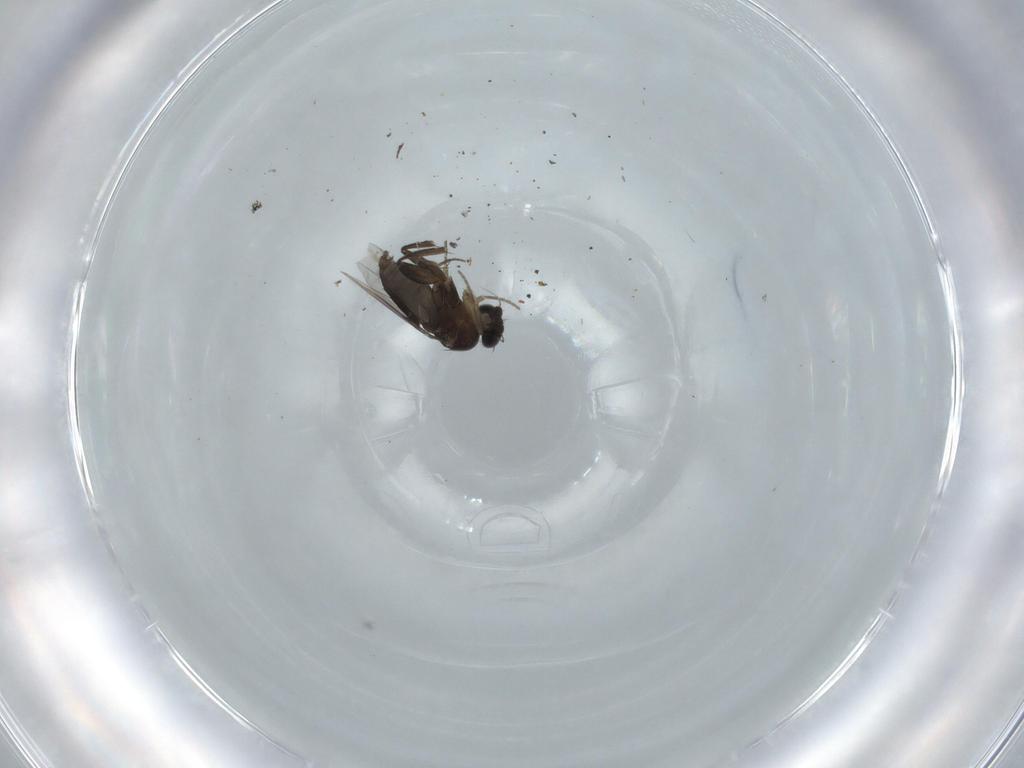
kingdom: Animalia
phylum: Arthropoda
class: Insecta
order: Diptera
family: Phoridae
